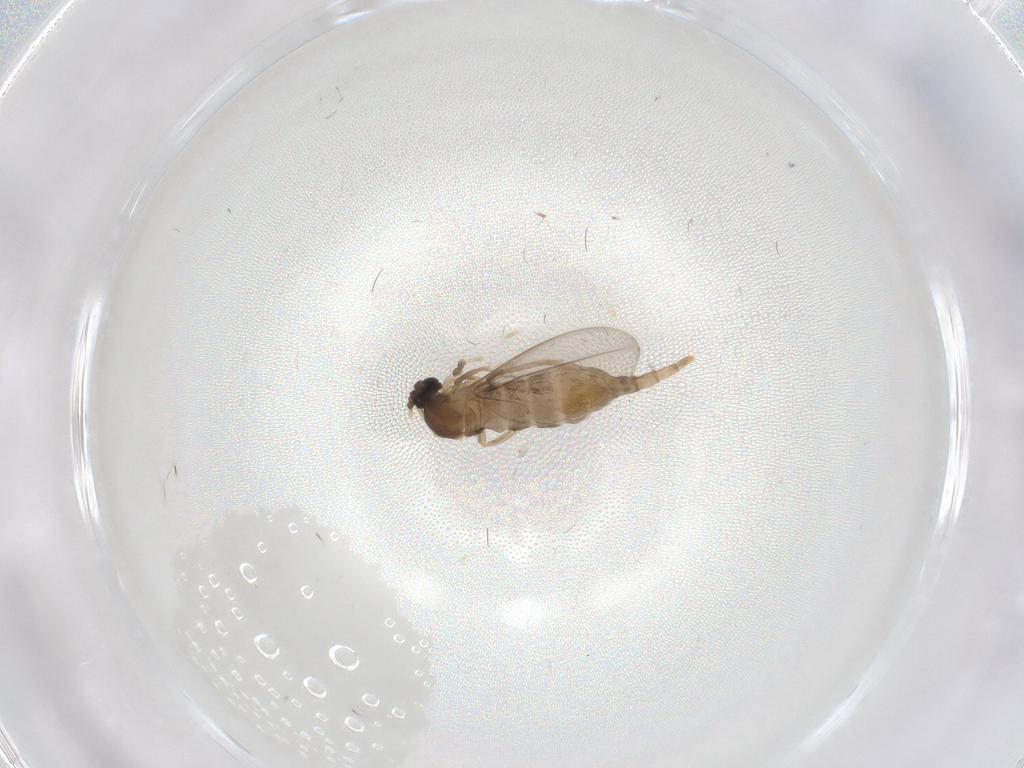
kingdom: Animalia
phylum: Arthropoda
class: Insecta
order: Diptera
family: Cecidomyiidae
